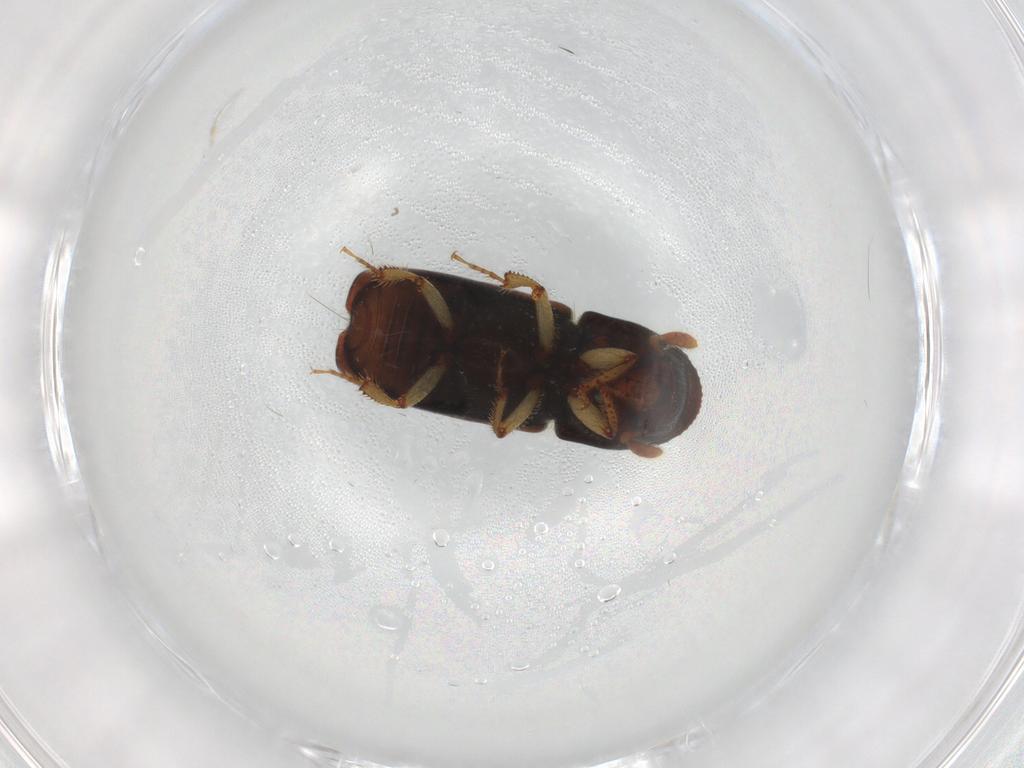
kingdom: Animalia
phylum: Arthropoda
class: Insecta
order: Coleoptera
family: Curculionidae
